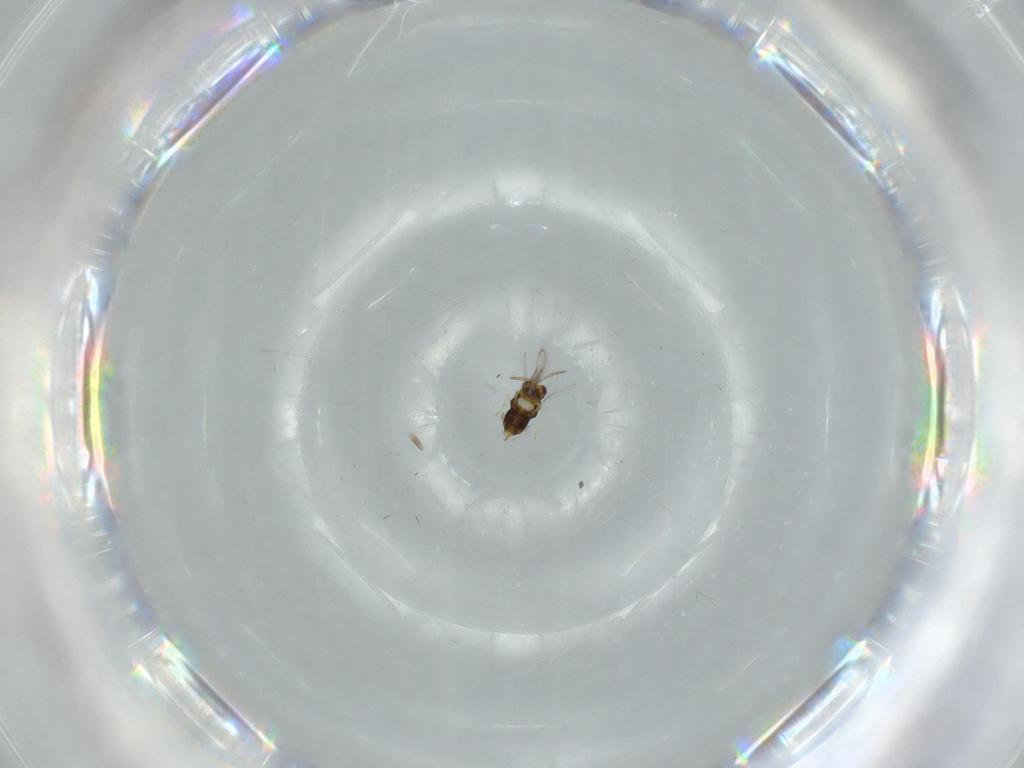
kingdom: Animalia
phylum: Arthropoda
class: Insecta
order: Hymenoptera
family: Aphelinidae
